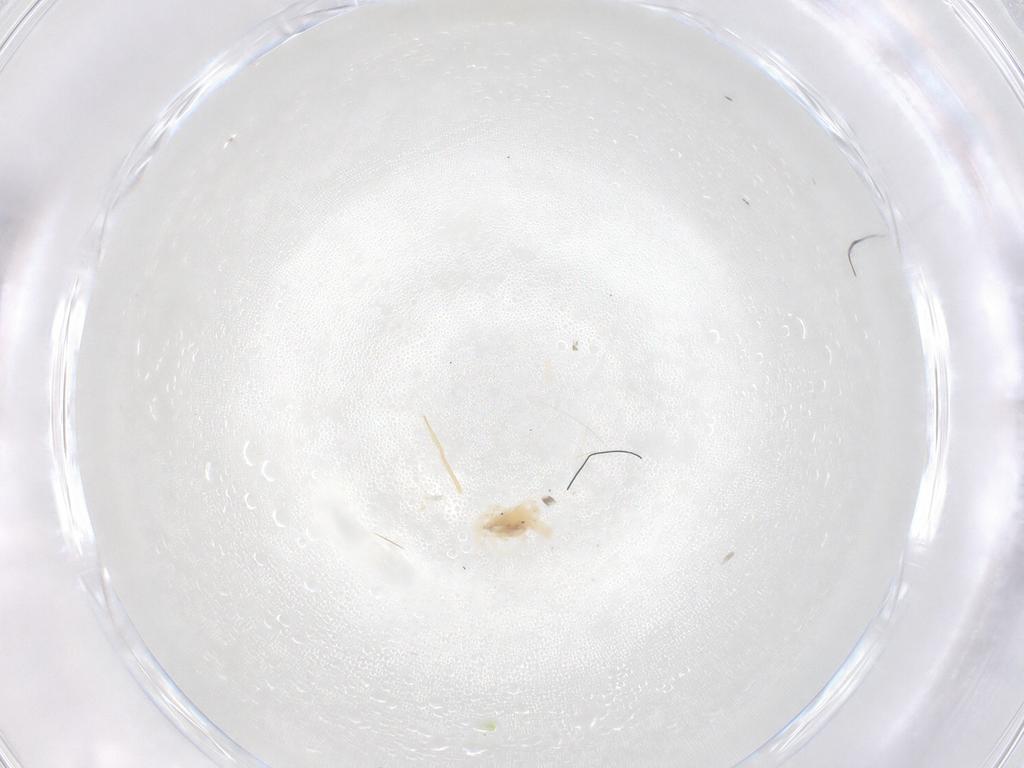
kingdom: Animalia
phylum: Arthropoda
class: Arachnida
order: Trombidiformes
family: Anystidae
